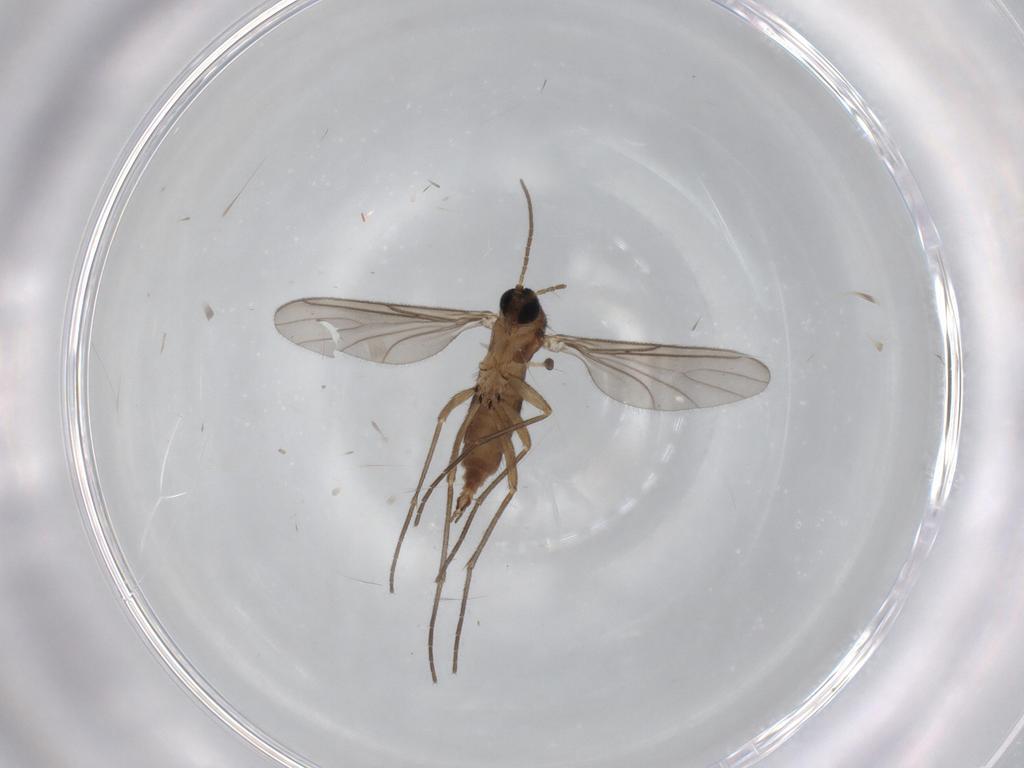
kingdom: Animalia
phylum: Arthropoda
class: Insecta
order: Diptera
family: Sciaridae
